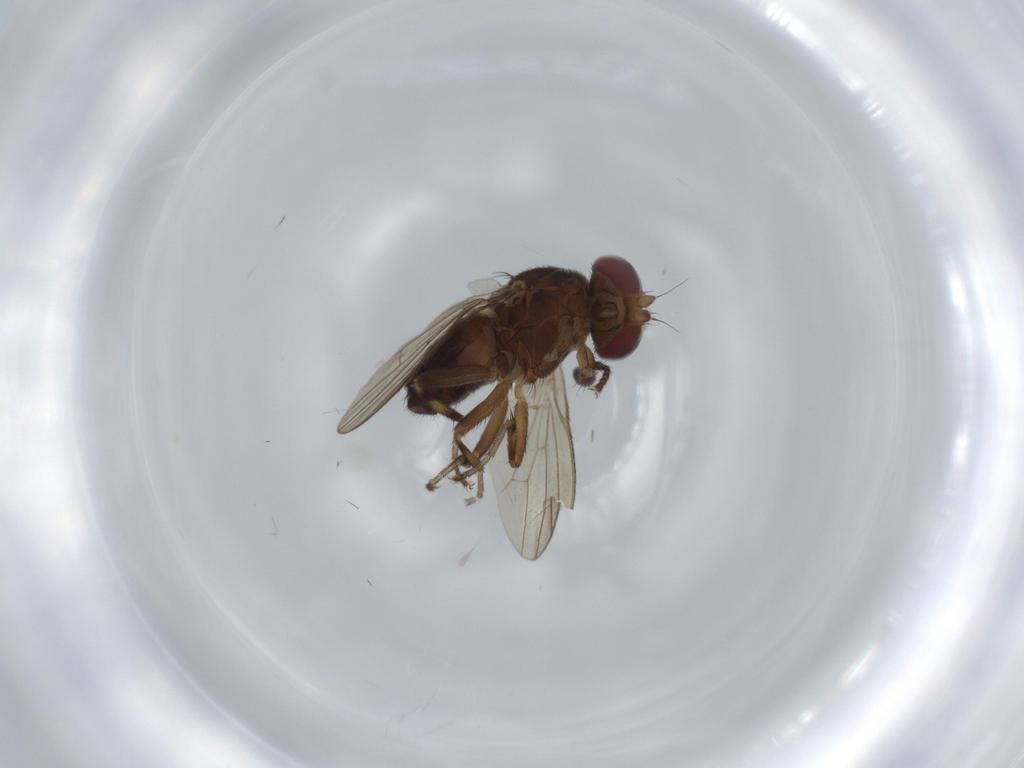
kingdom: Animalia
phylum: Arthropoda
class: Insecta
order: Diptera
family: Heleomyzidae
